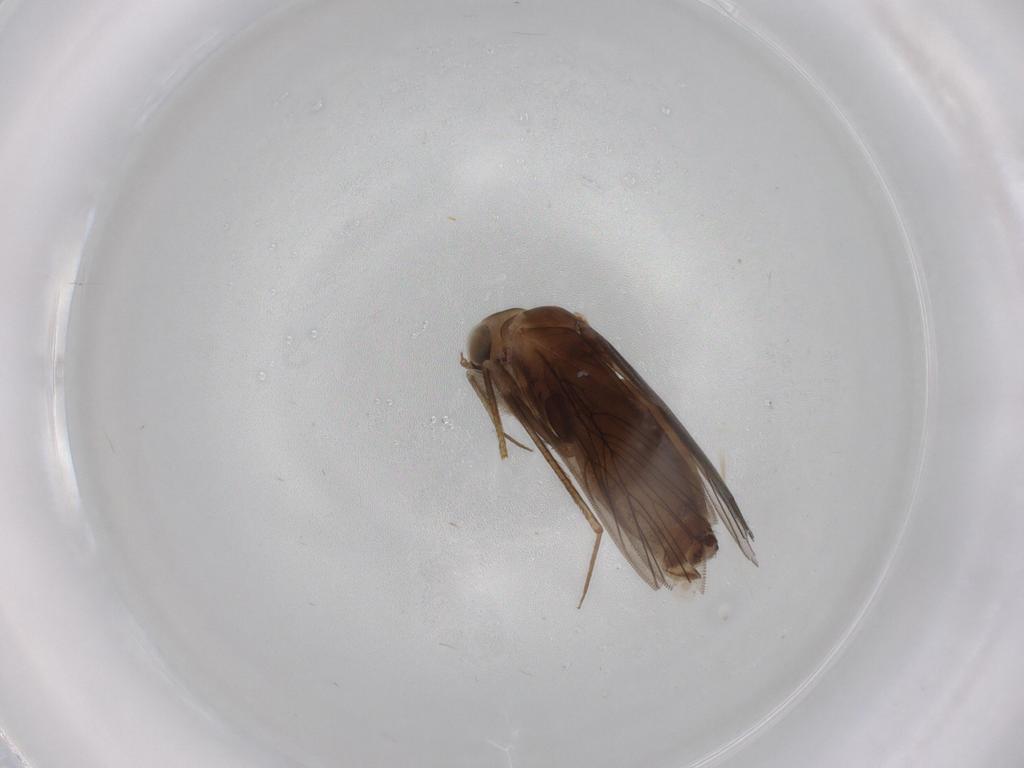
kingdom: Animalia
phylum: Arthropoda
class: Insecta
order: Psocodea
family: Lepidopsocidae
